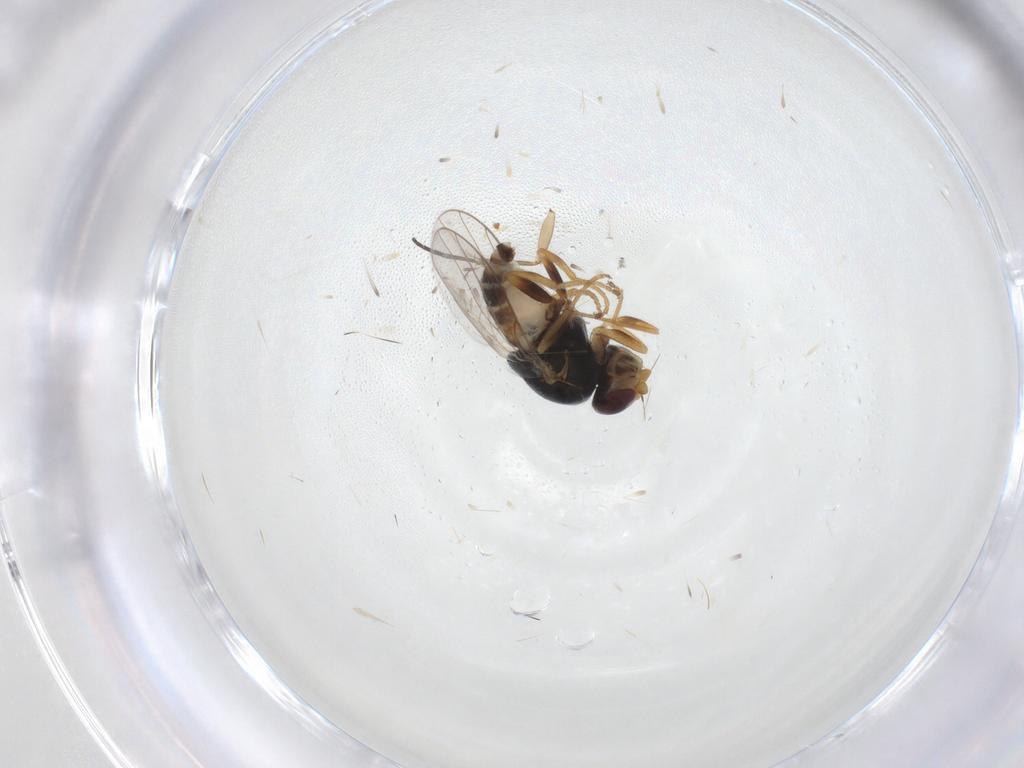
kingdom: Animalia
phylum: Arthropoda
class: Insecta
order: Diptera
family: Chloropidae
